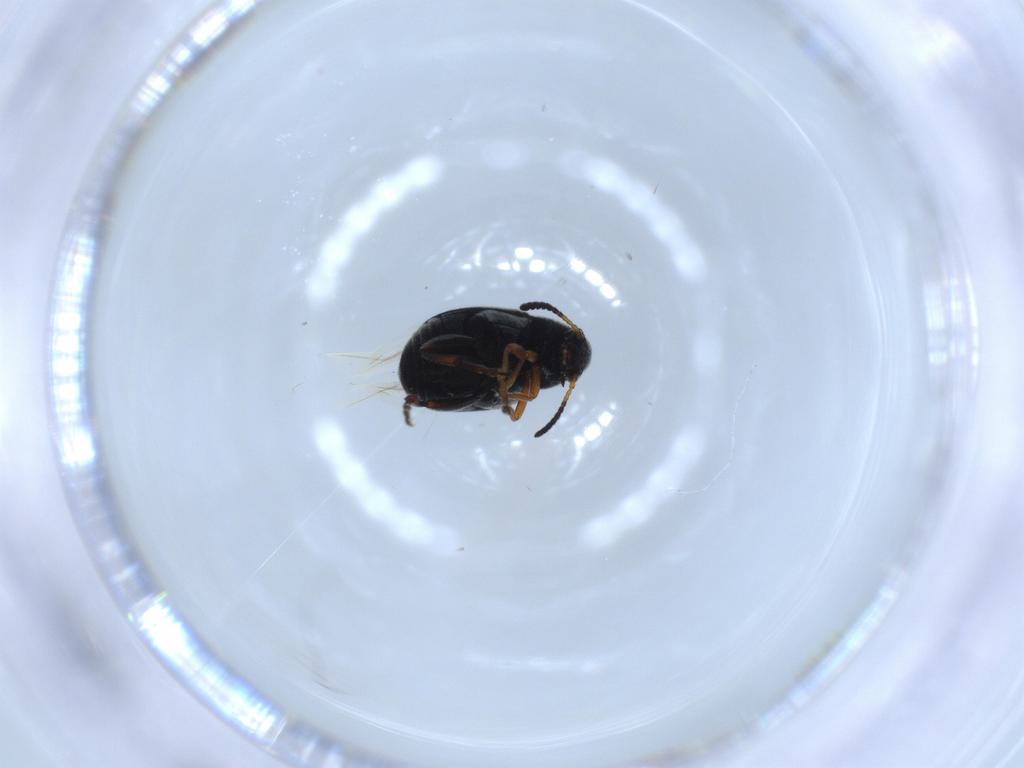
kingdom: Animalia
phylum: Arthropoda
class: Insecta
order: Coleoptera
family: Chrysomelidae
